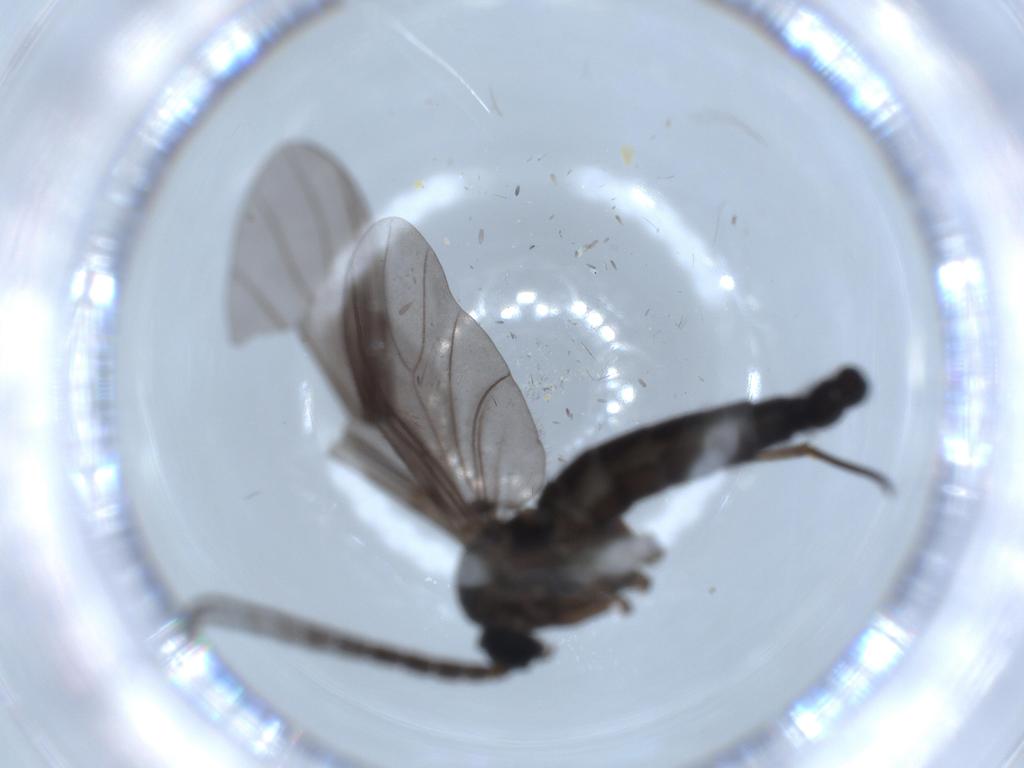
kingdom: Animalia
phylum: Arthropoda
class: Insecta
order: Diptera
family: Sciaridae
